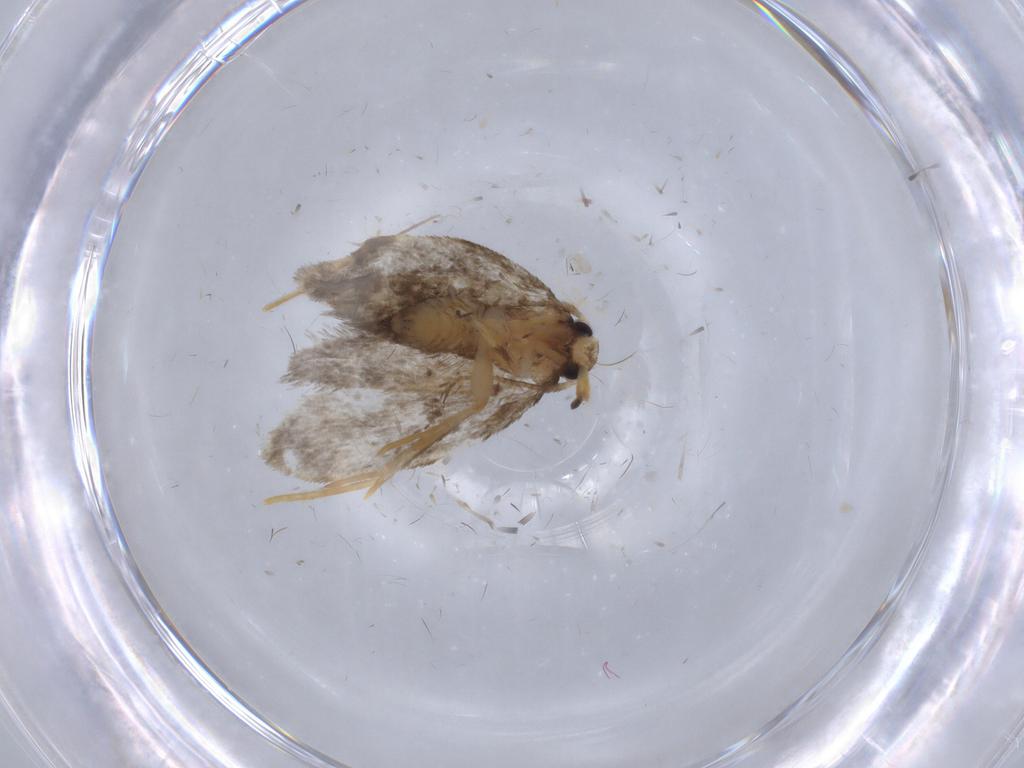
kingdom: Animalia
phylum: Arthropoda
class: Insecta
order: Lepidoptera
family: Psychidae
